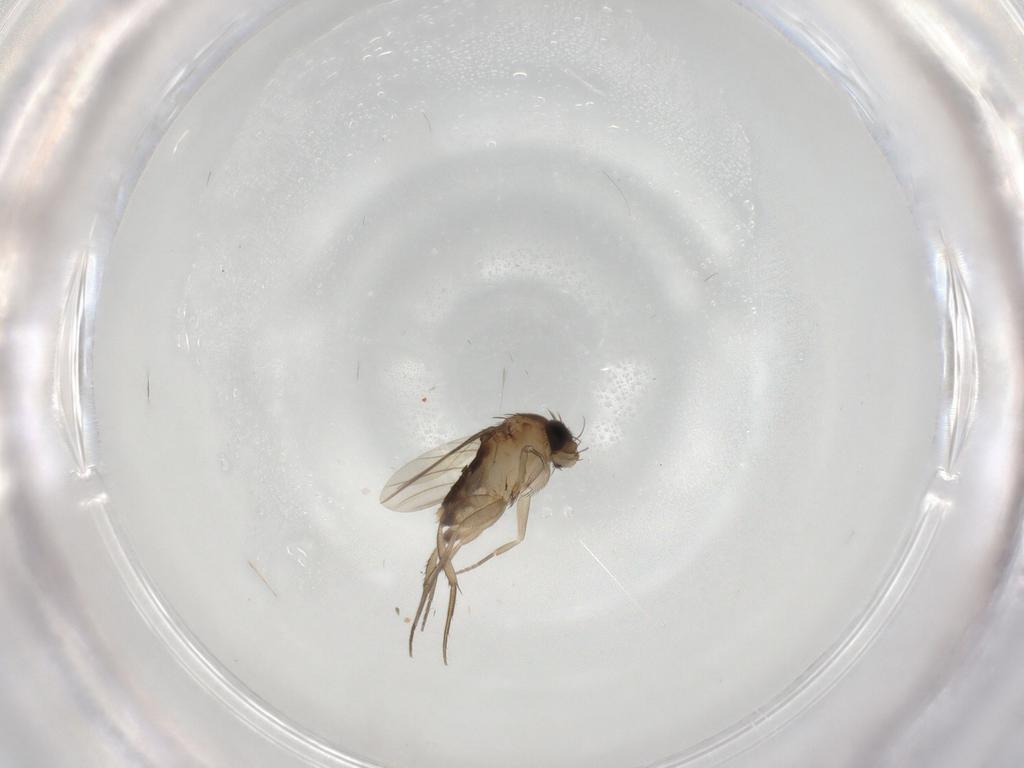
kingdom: Animalia
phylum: Arthropoda
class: Insecta
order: Diptera
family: Phoridae
